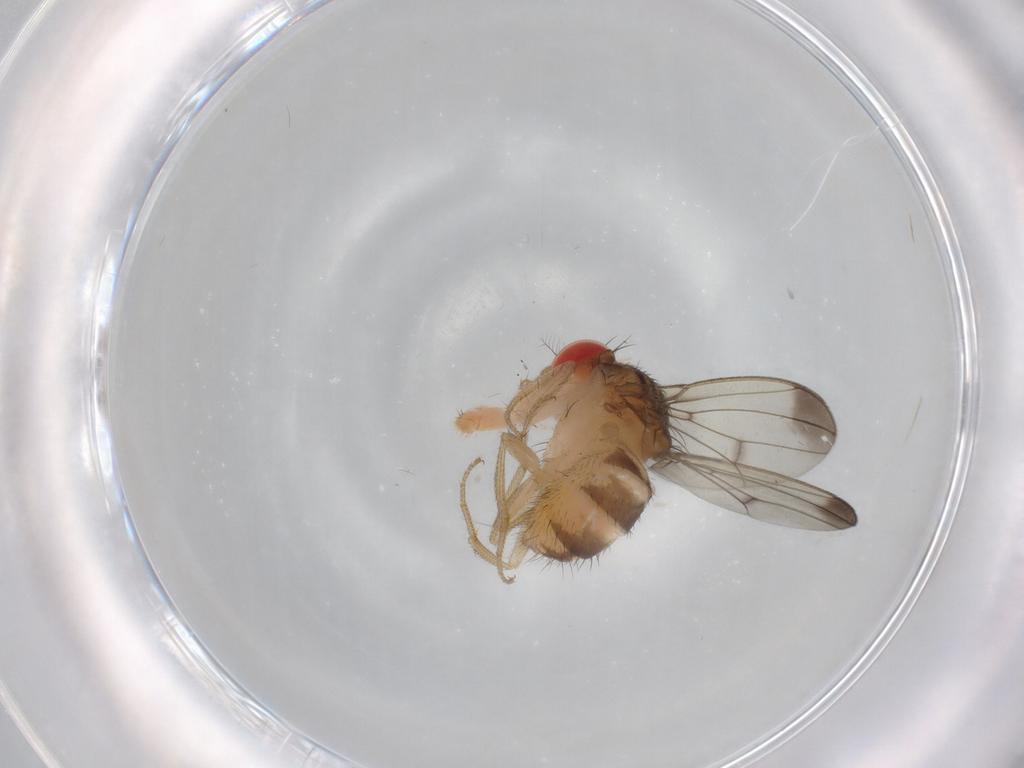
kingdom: Animalia
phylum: Arthropoda
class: Insecta
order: Diptera
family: Drosophilidae
